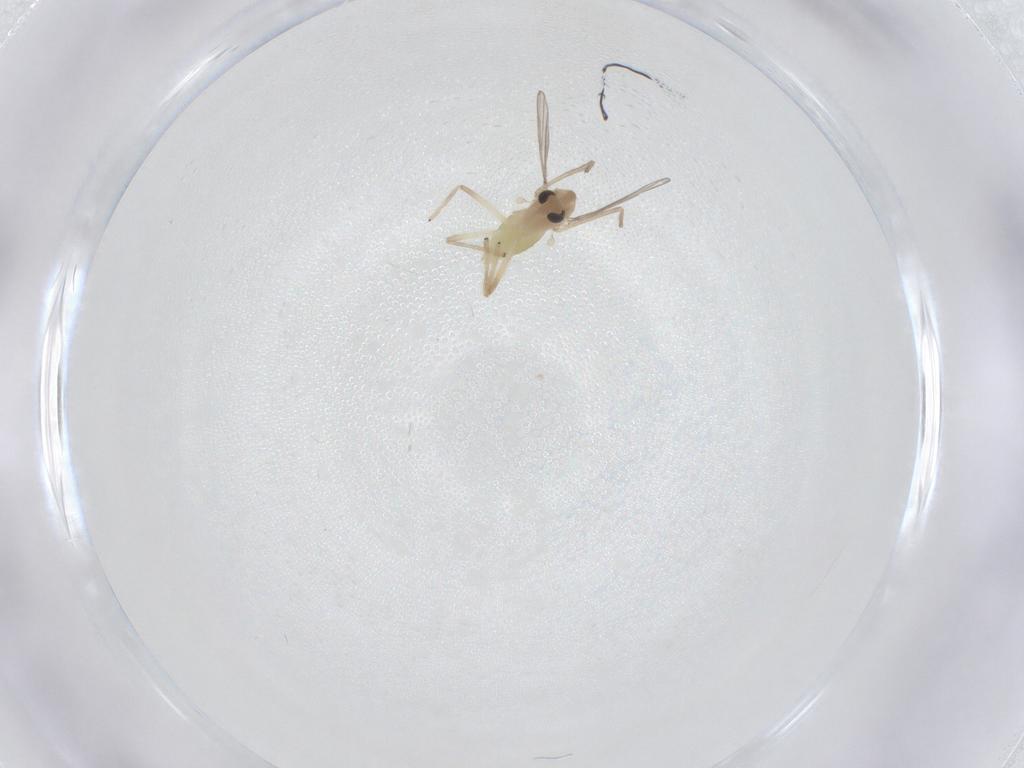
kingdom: Animalia
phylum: Arthropoda
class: Insecta
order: Diptera
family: Chironomidae
